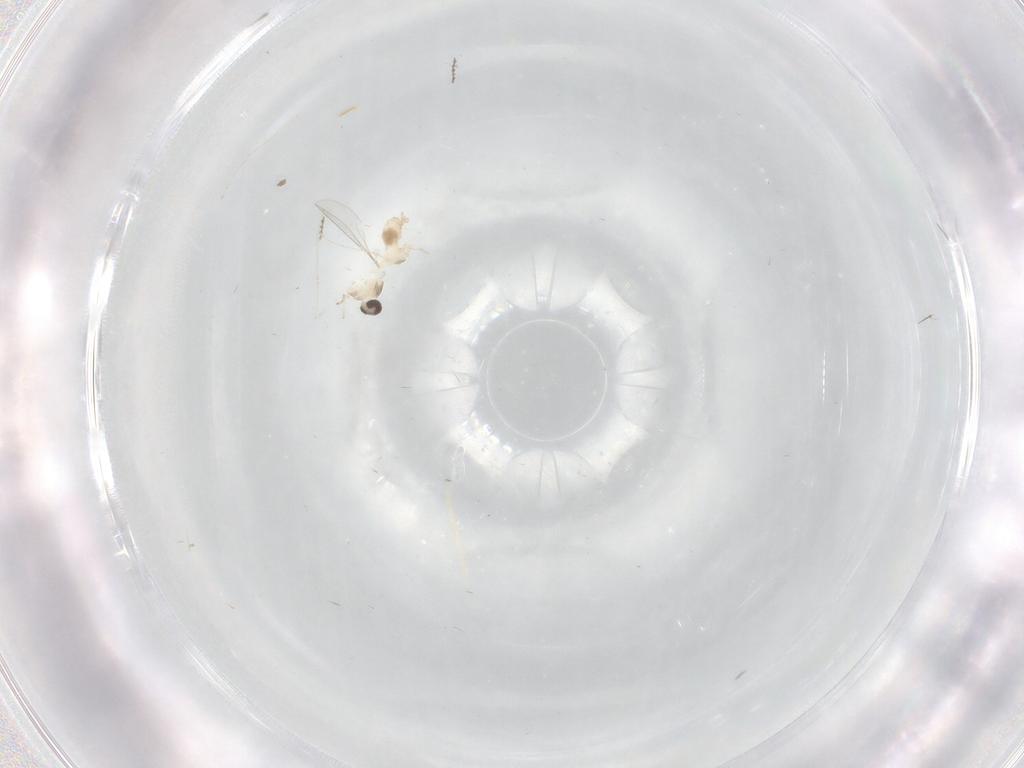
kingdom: Animalia
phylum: Arthropoda
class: Insecta
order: Diptera
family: Cecidomyiidae
